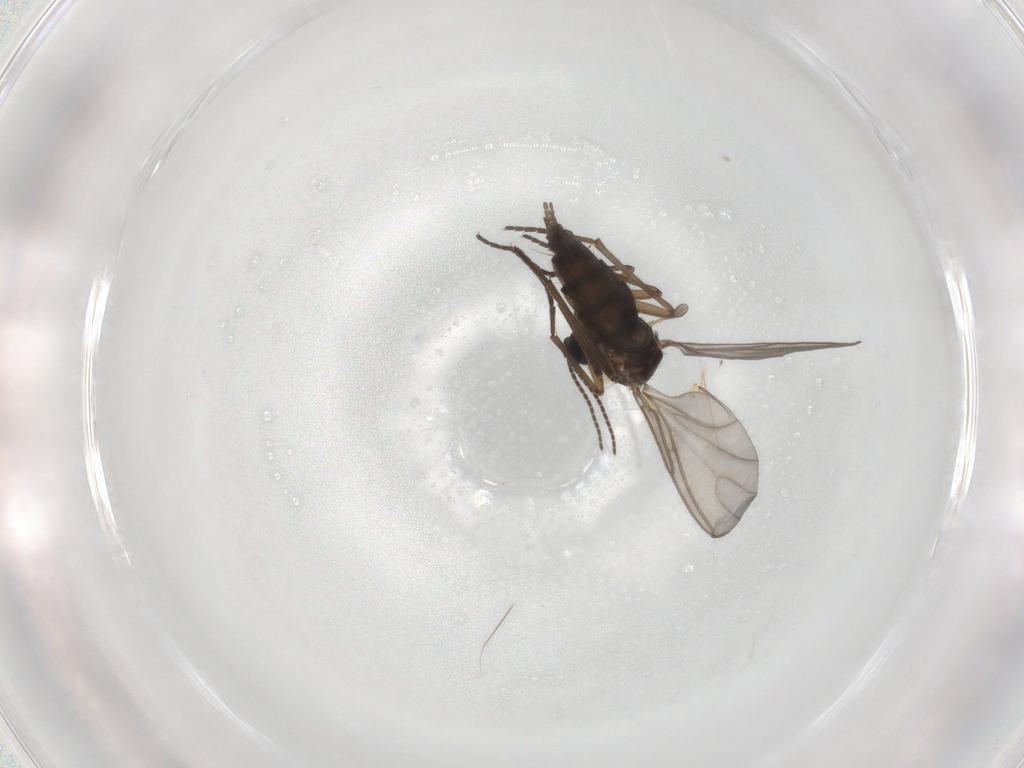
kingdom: Animalia
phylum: Arthropoda
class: Insecta
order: Diptera
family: Sciaridae
